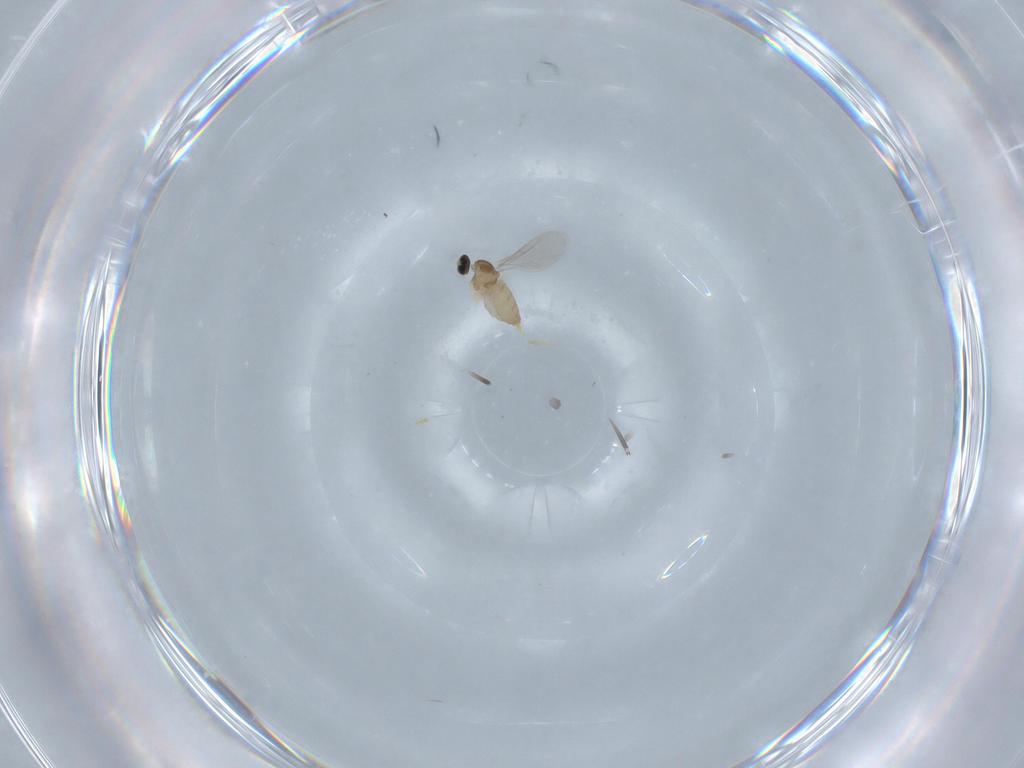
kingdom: Animalia
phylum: Arthropoda
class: Insecta
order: Diptera
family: Cecidomyiidae
